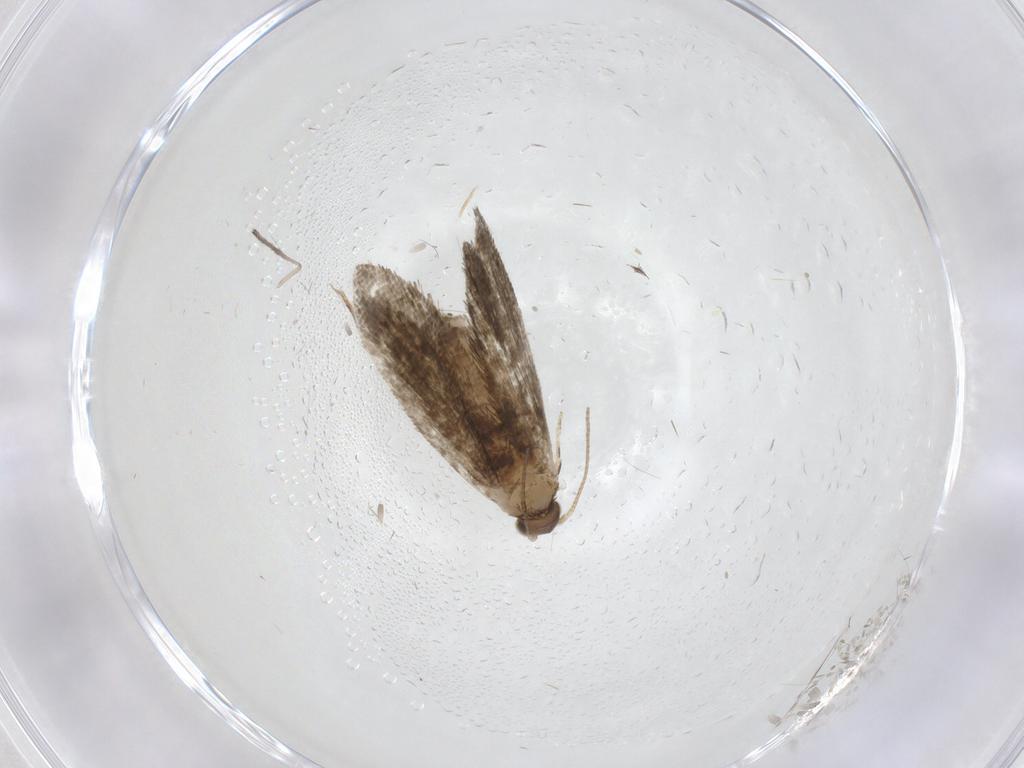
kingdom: Animalia
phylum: Arthropoda
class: Insecta
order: Lepidoptera
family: Tineidae
